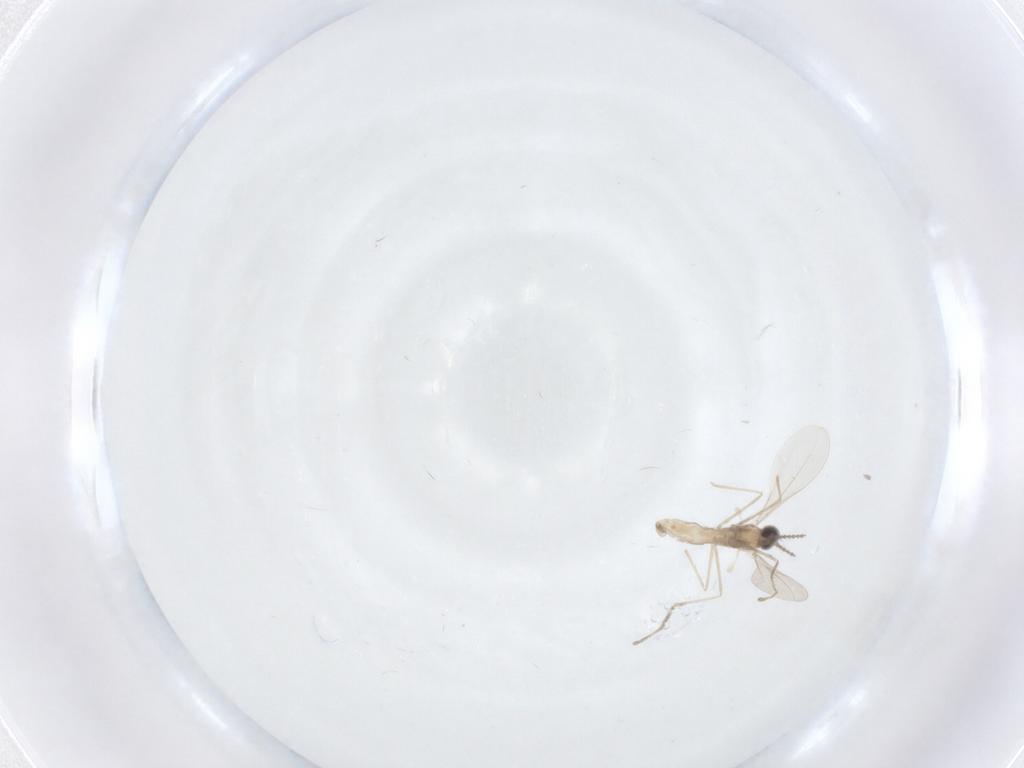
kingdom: Animalia
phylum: Arthropoda
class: Insecta
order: Diptera
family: Cecidomyiidae
